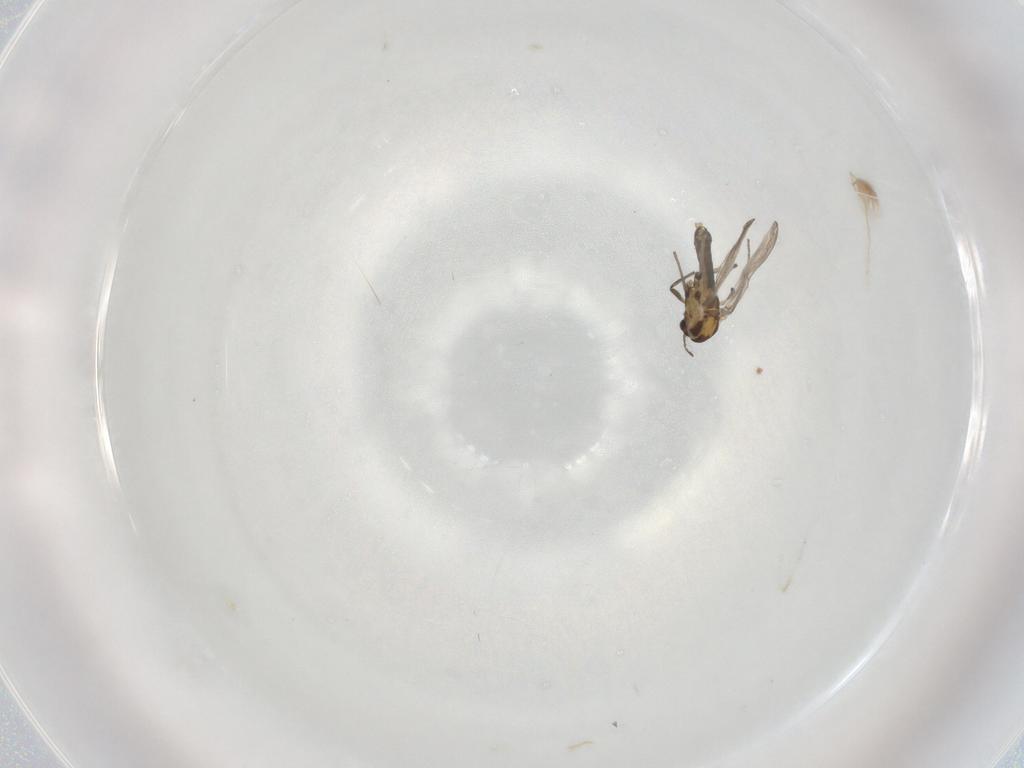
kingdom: Animalia
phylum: Arthropoda
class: Insecta
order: Diptera
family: Chironomidae
